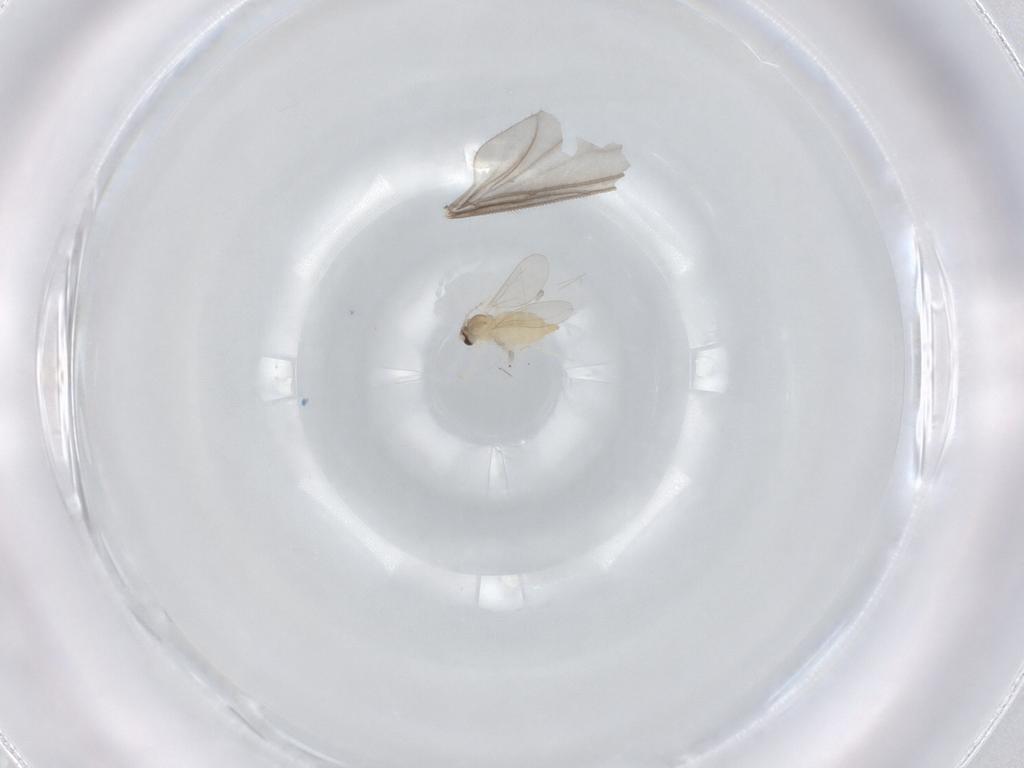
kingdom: Animalia
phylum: Arthropoda
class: Insecta
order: Diptera
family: Sciaridae
